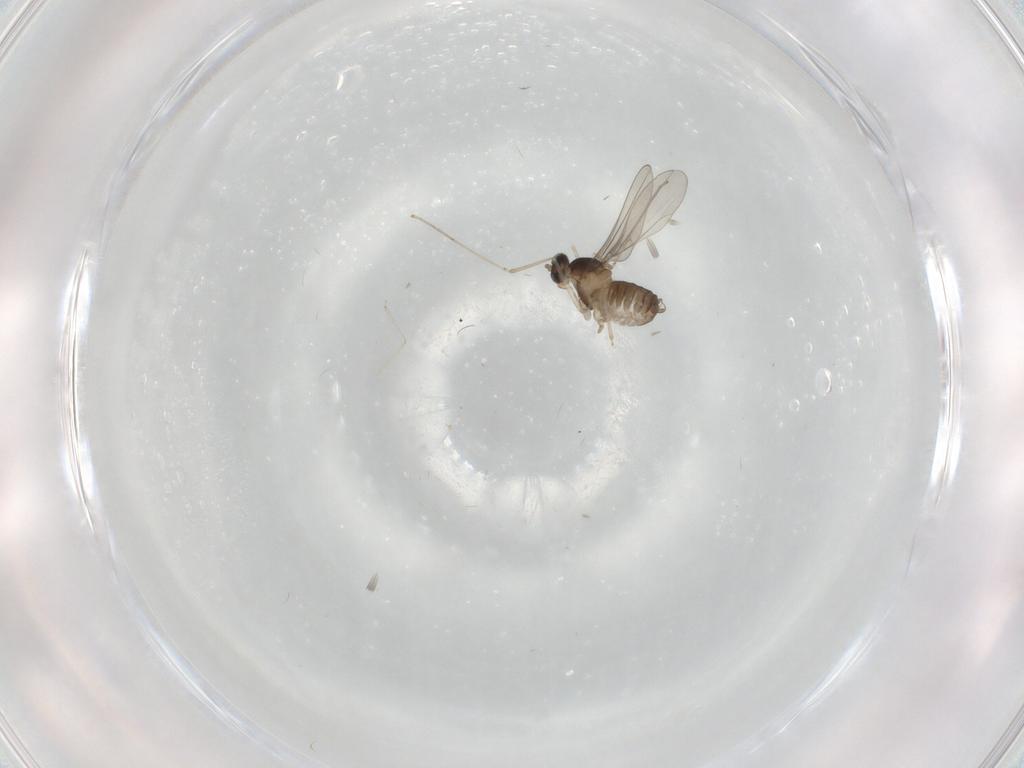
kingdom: Animalia
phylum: Arthropoda
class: Insecta
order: Diptera
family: Cecidomyiidae
